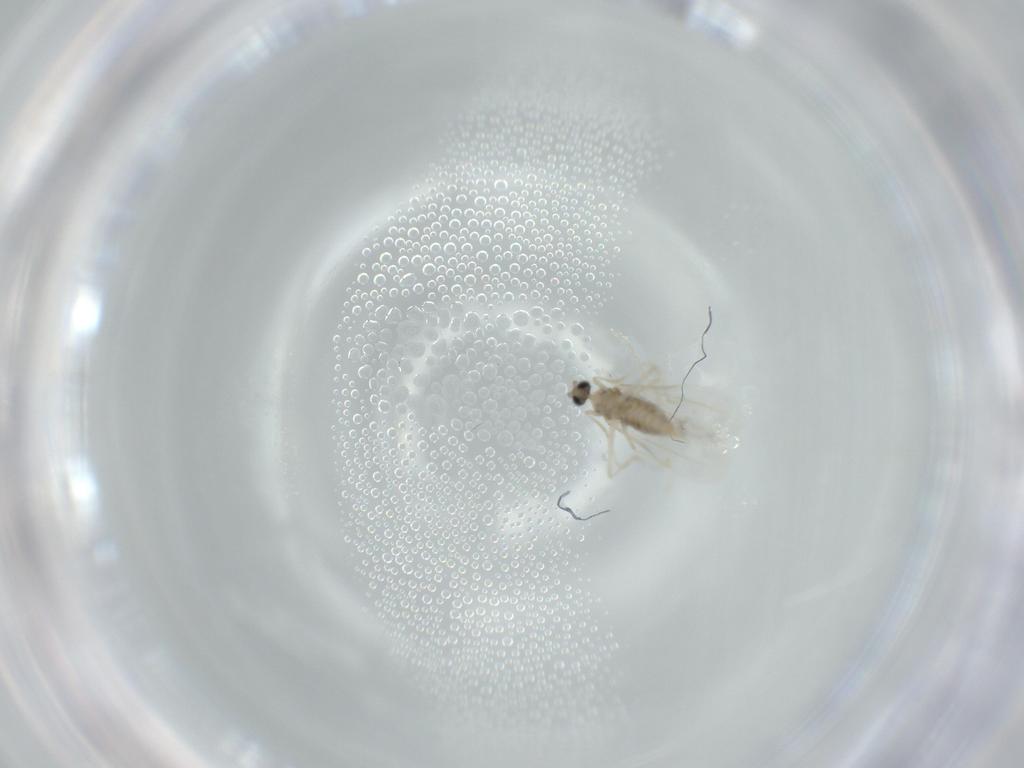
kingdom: Animalia
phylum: Arthropoda
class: Insecta
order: Diptera
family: Cecidomyiidae
